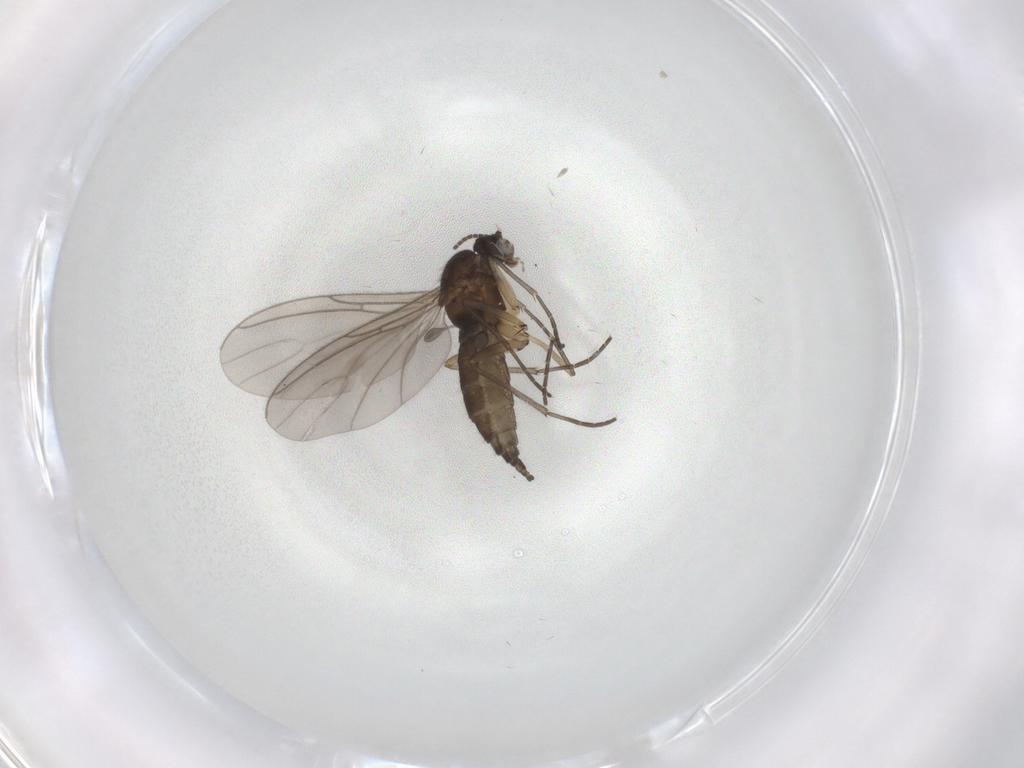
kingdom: Animalia
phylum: Arthropoda
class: Insecta
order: Diptera
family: Sciaridae
